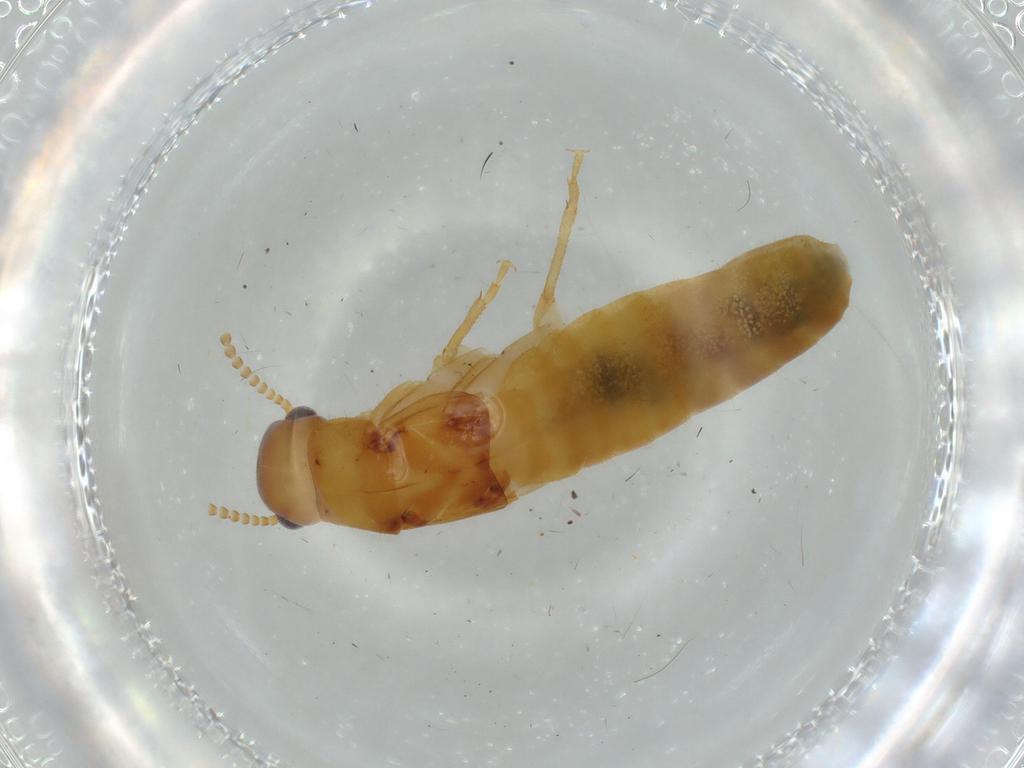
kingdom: Animalia
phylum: Arthropoda
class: Insecta
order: Blattodea
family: Kalotermitidae
